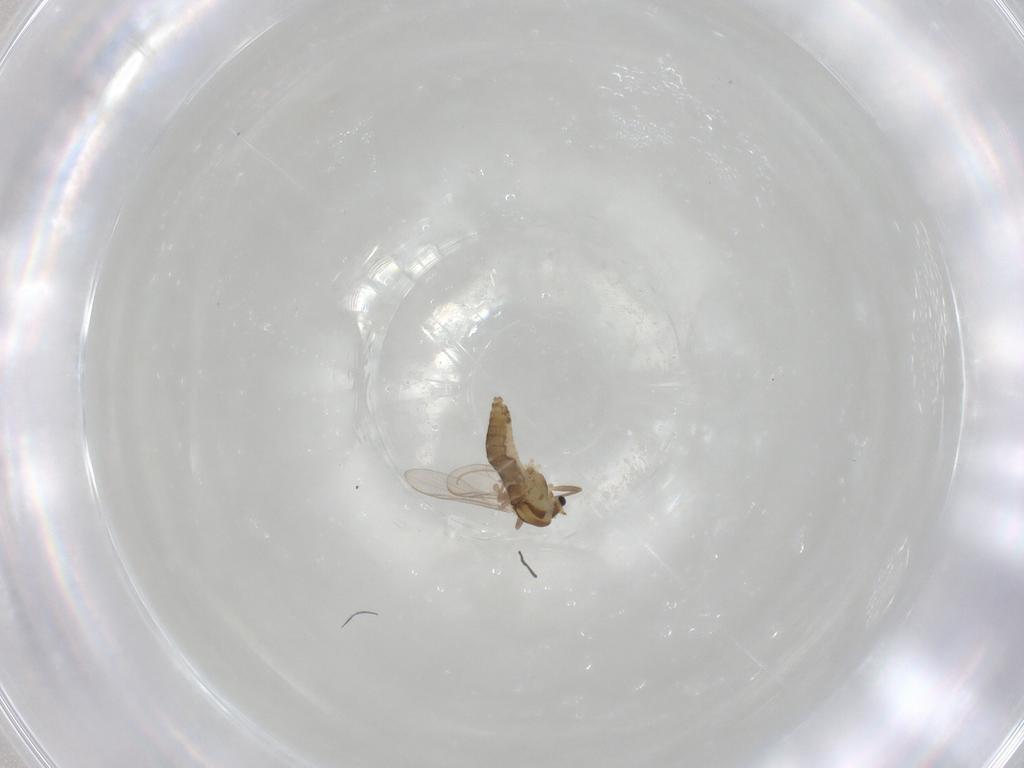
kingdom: Animalia
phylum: Arthropoda
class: Insecta
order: Diptera
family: Chironomidae
